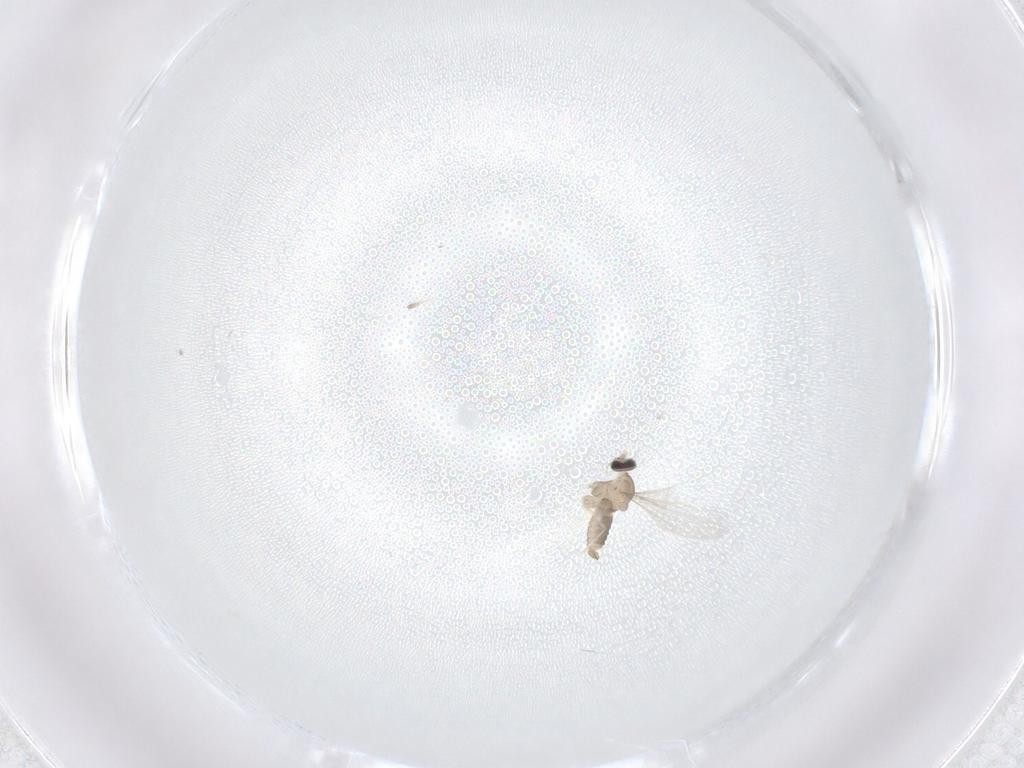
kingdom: Animalia
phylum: Arthropoda
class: Insecta
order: Diptera
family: Cecidomyiidae
